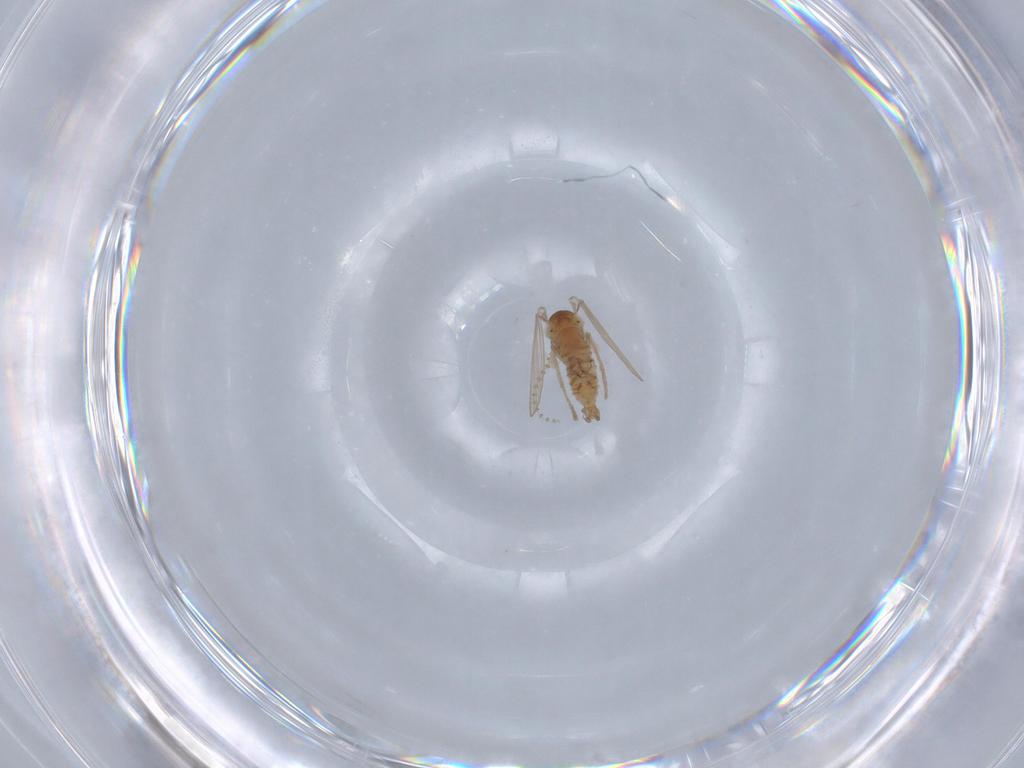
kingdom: Animalia
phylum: Arthropoda
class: Insecta
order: Diptera
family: Psychodidae
